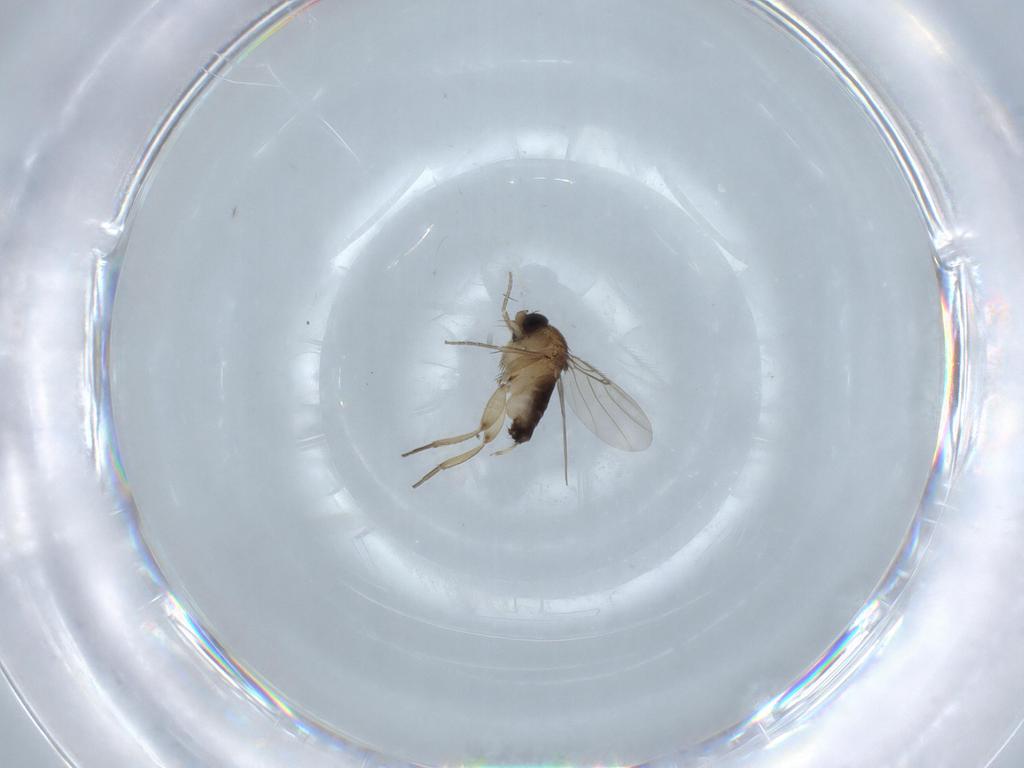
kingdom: Animalia
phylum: Arthropoda
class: Insecta
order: Diptera
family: Phoridae
